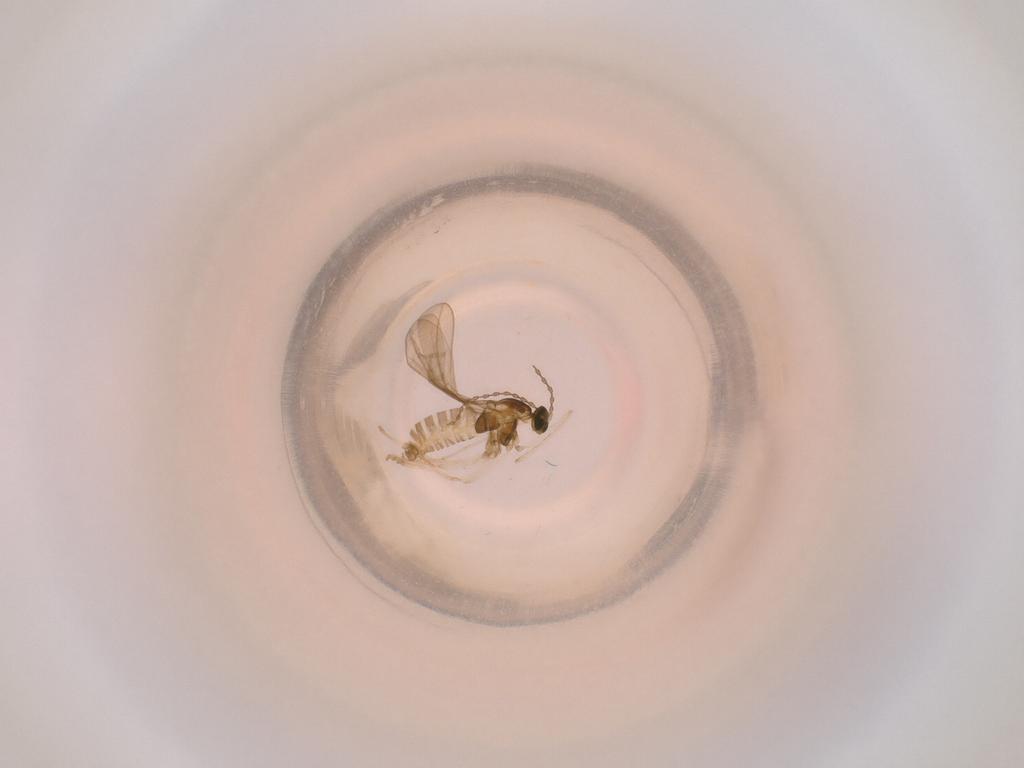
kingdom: Animalia
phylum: Arthropoda
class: Insecta
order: Diptera
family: Cecidomyiidae
